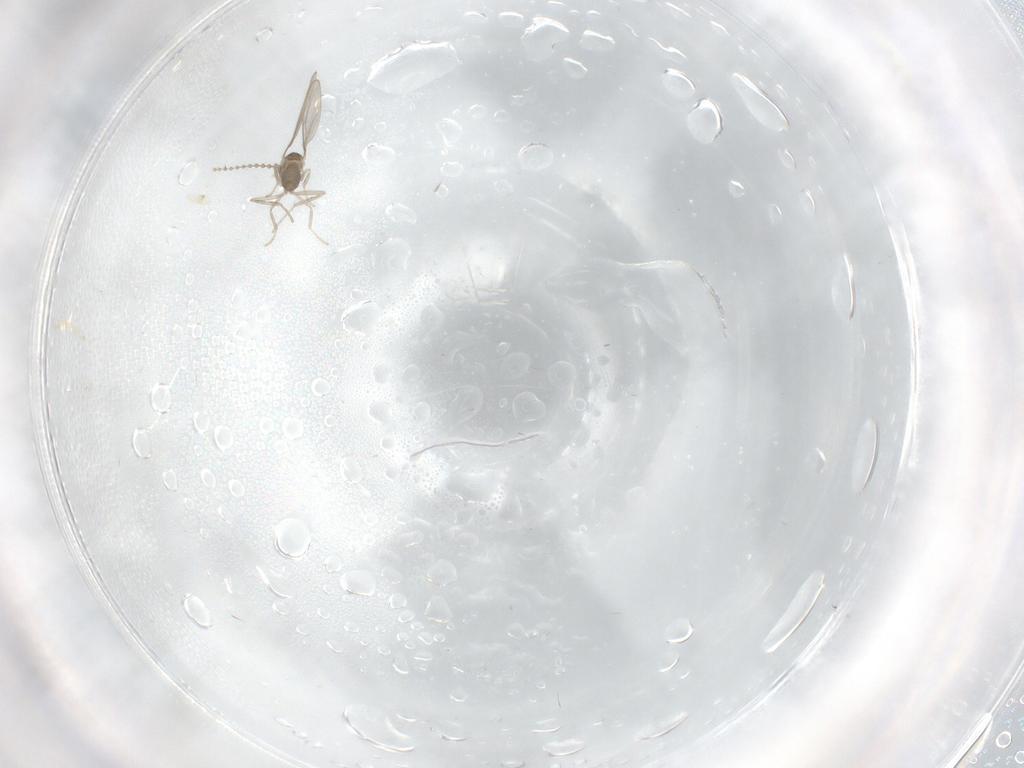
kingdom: Animalia
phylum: Arthropoda
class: Insecta
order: Diptera
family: Cecidomyiidae
